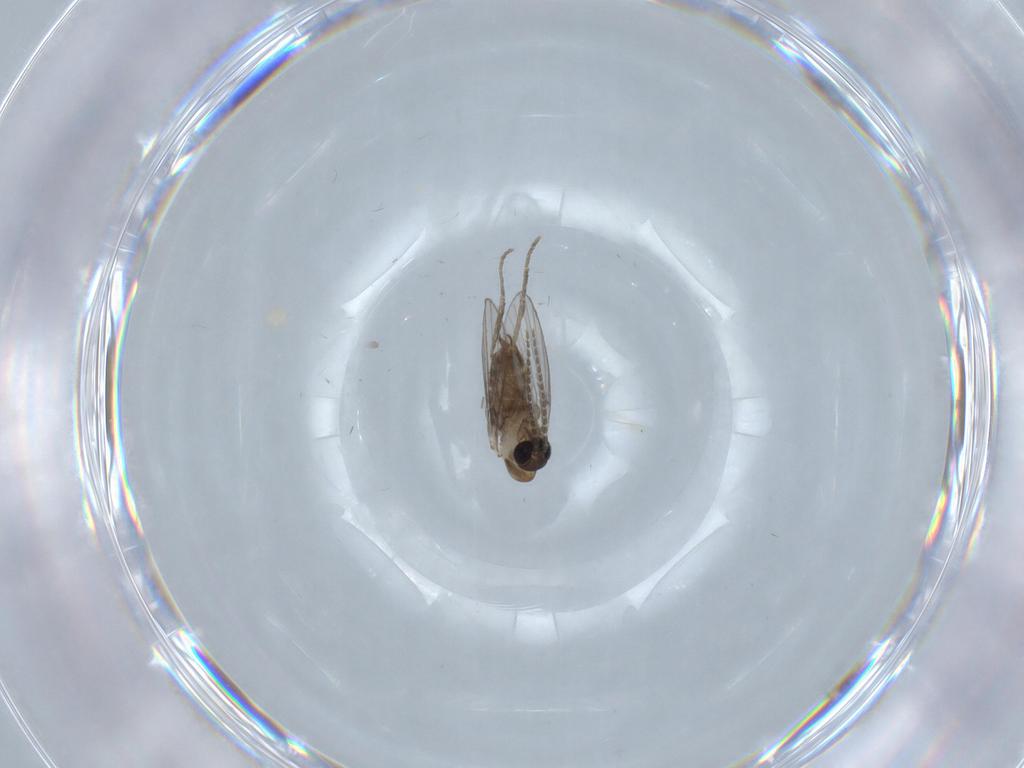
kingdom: Animalia
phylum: Arthropoda
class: Insecta
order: Diptera
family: Psychodidae
